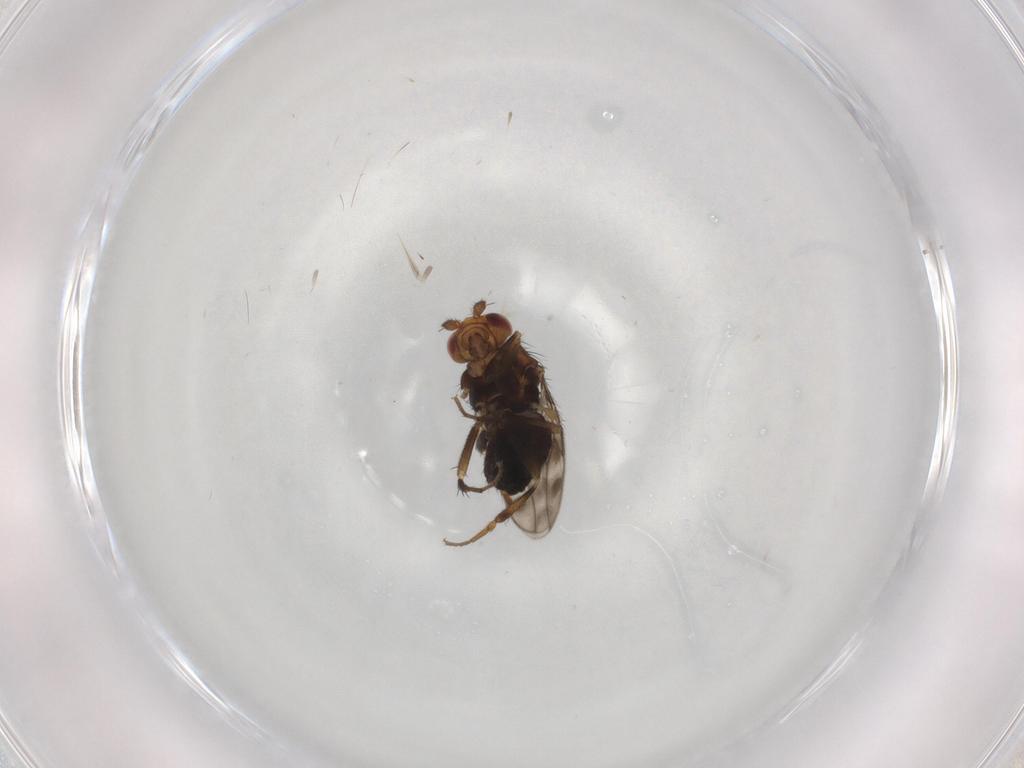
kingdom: Animalia
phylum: Arthropoda
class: Insecta
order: Diptera
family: Sphaeroceridae
